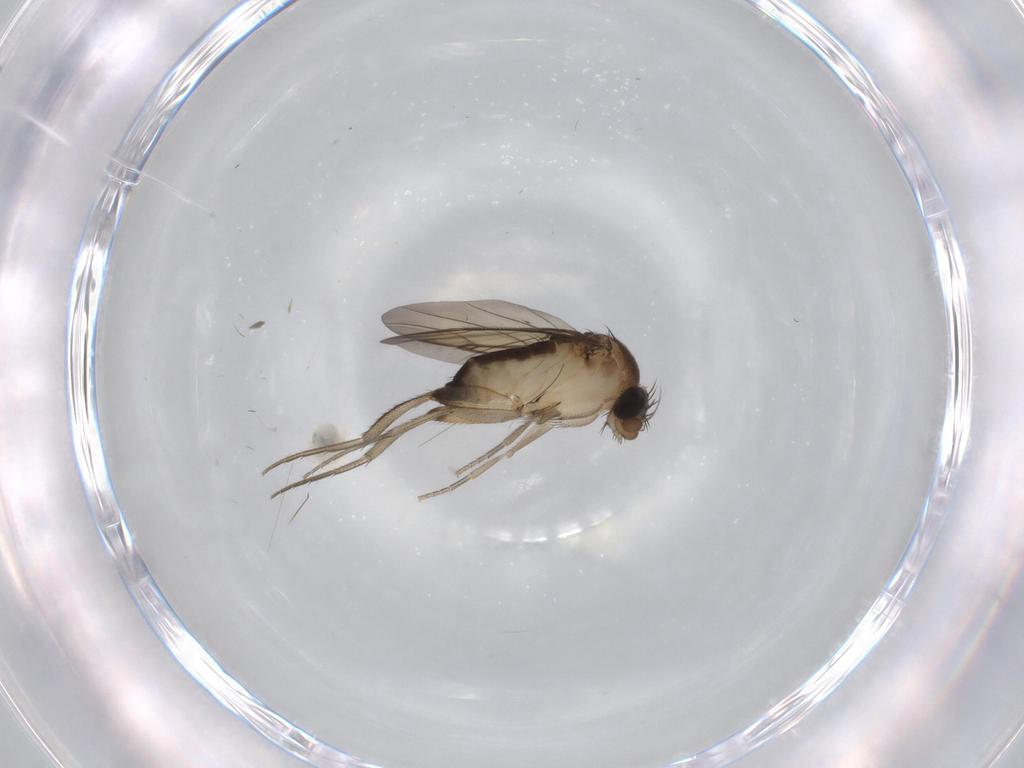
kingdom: Animalia
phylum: Arthropoda
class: Insecta
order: Diptera
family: Phoridae
